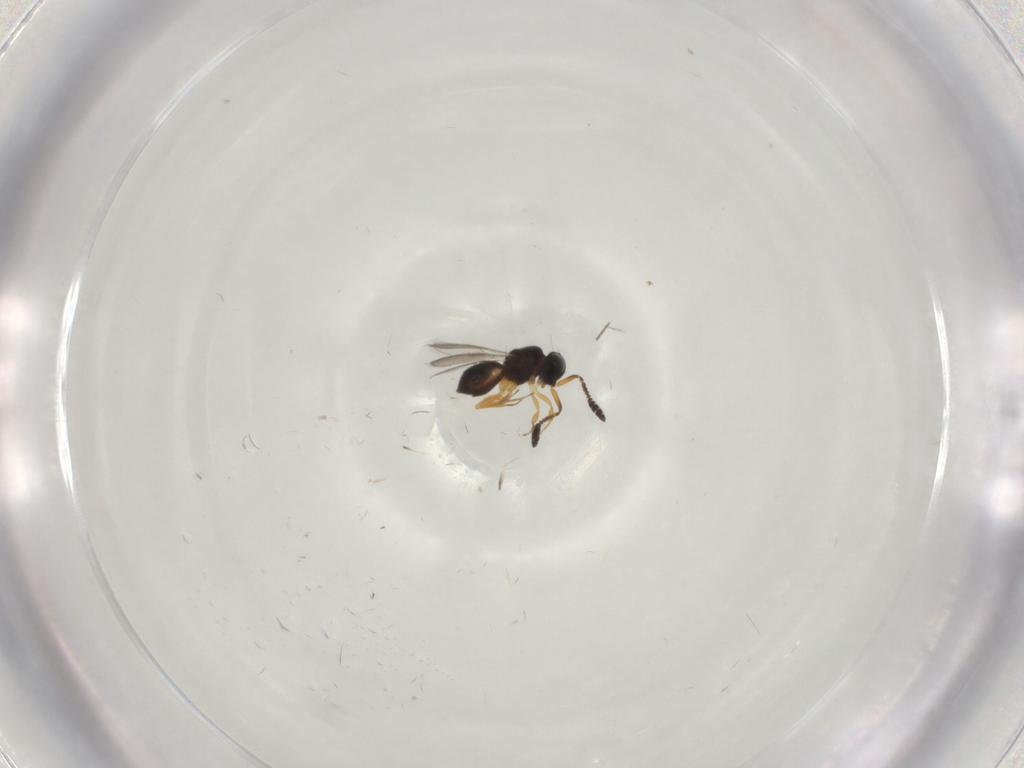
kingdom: Animalia
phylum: Arthropoda
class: Insecta
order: Hymenoptera
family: Scelionidae
